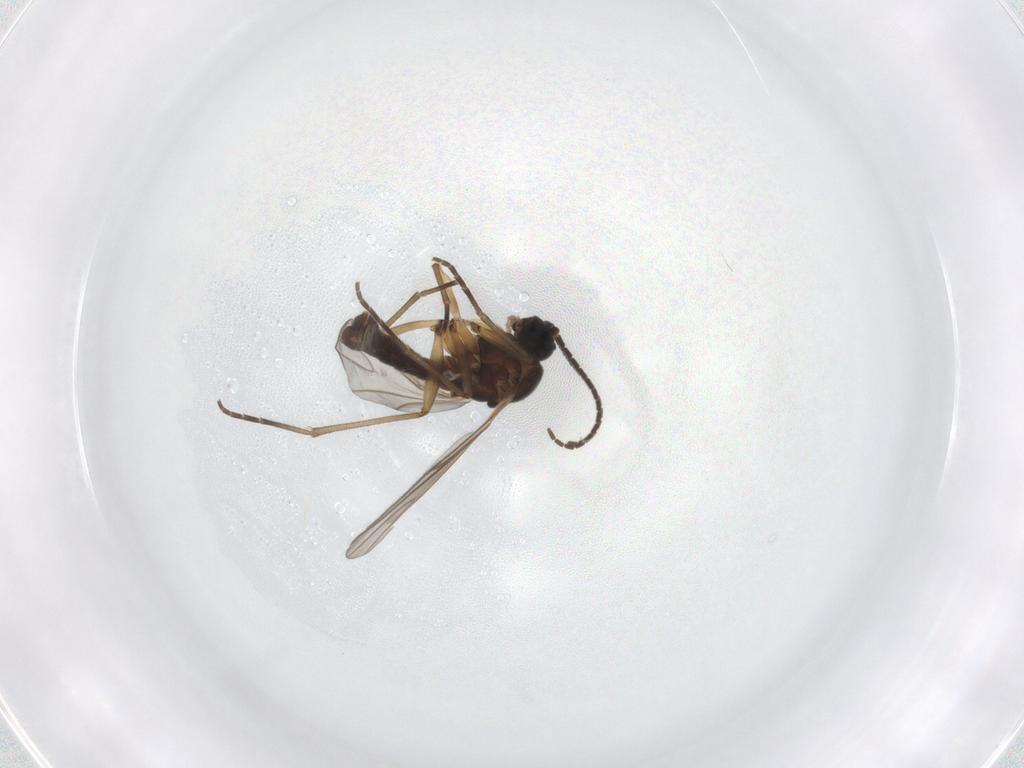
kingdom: Animalia
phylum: Arthropoda
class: Insecta
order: Diptera
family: Sciaridae
